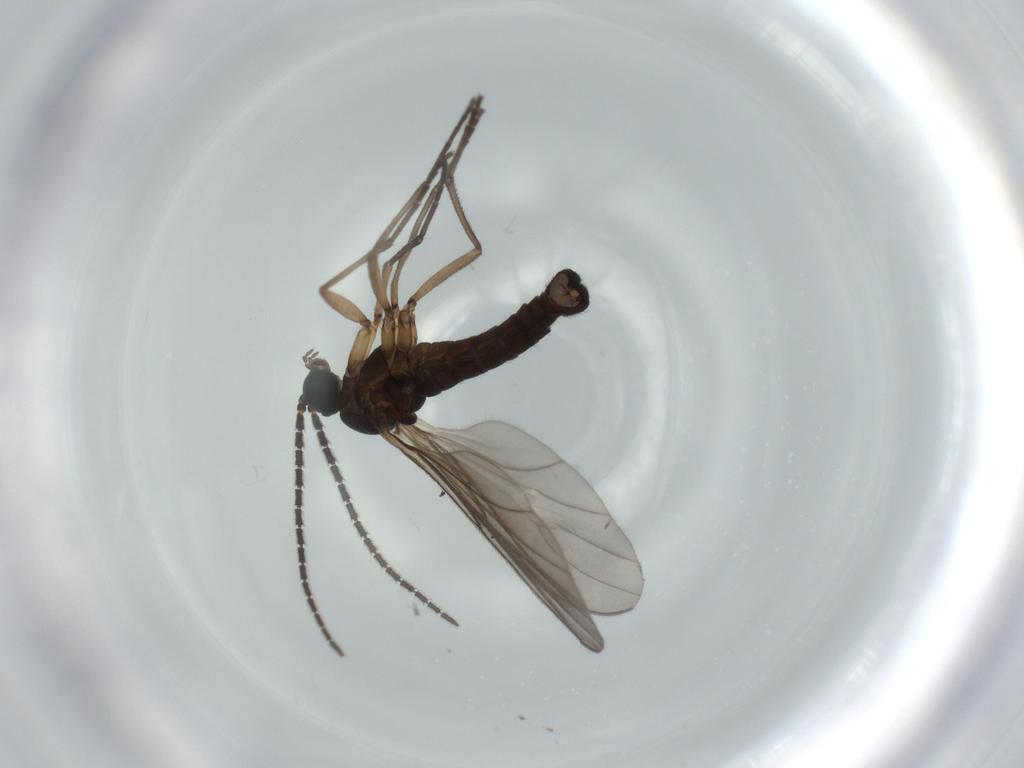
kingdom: Animalia
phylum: Arthropoda
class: Insecta
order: Diptera
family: Sciaridae
